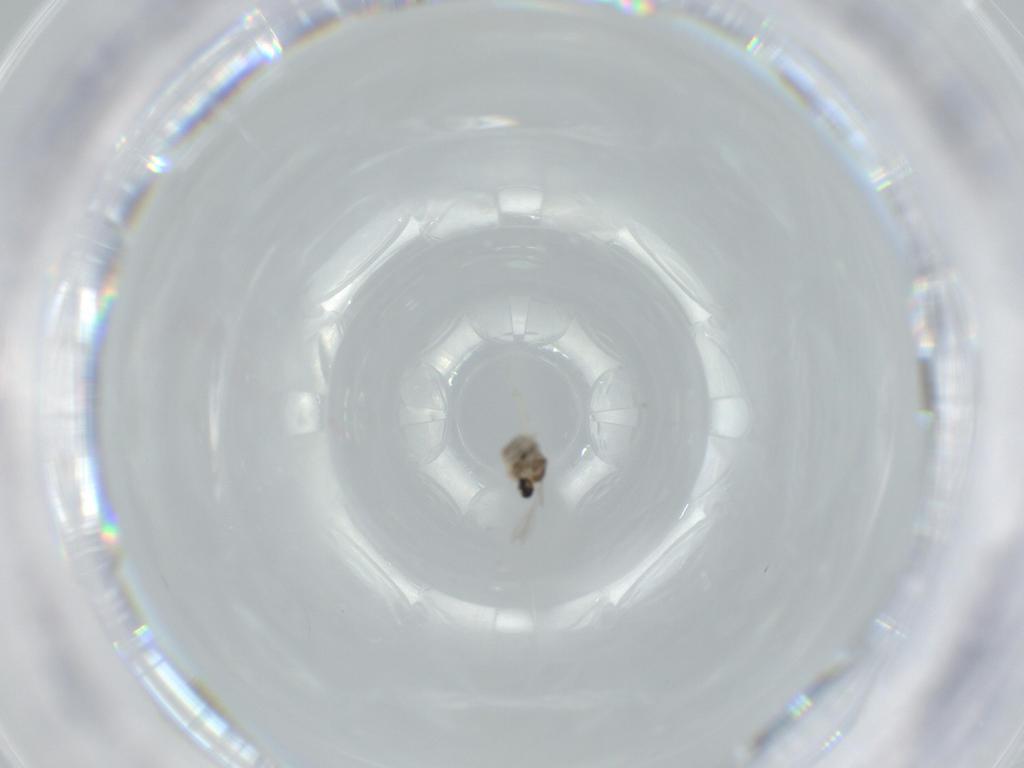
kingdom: Animalia
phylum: Arthropoda
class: Insecta
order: Diptera
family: Cecidomyiidae
